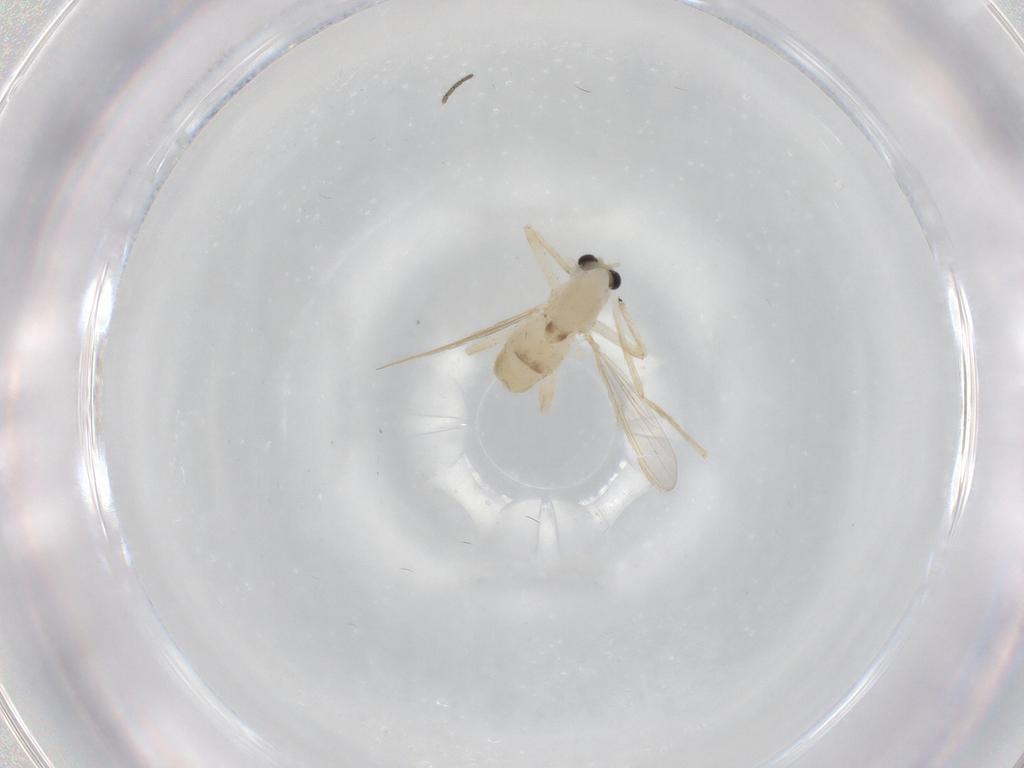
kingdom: Animalia
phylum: Arthropoda
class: Insecta
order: Diptera
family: Chironomidae
